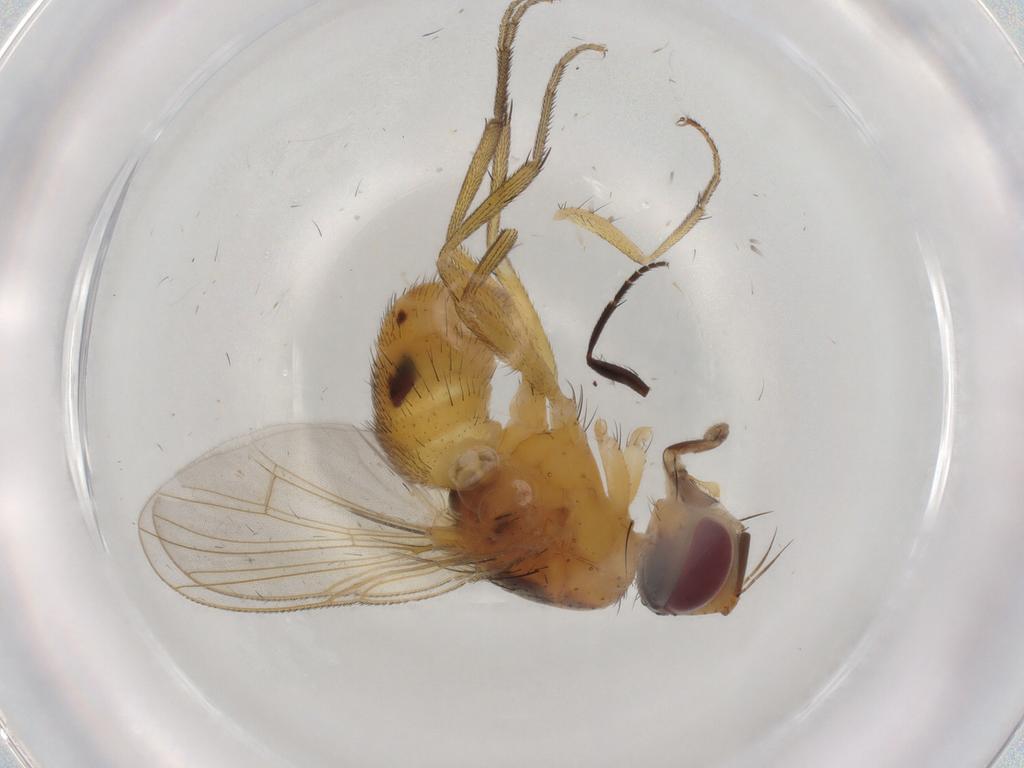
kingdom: Animalia
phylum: Arthropoda
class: Insecta
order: Diptera
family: Muscidae
